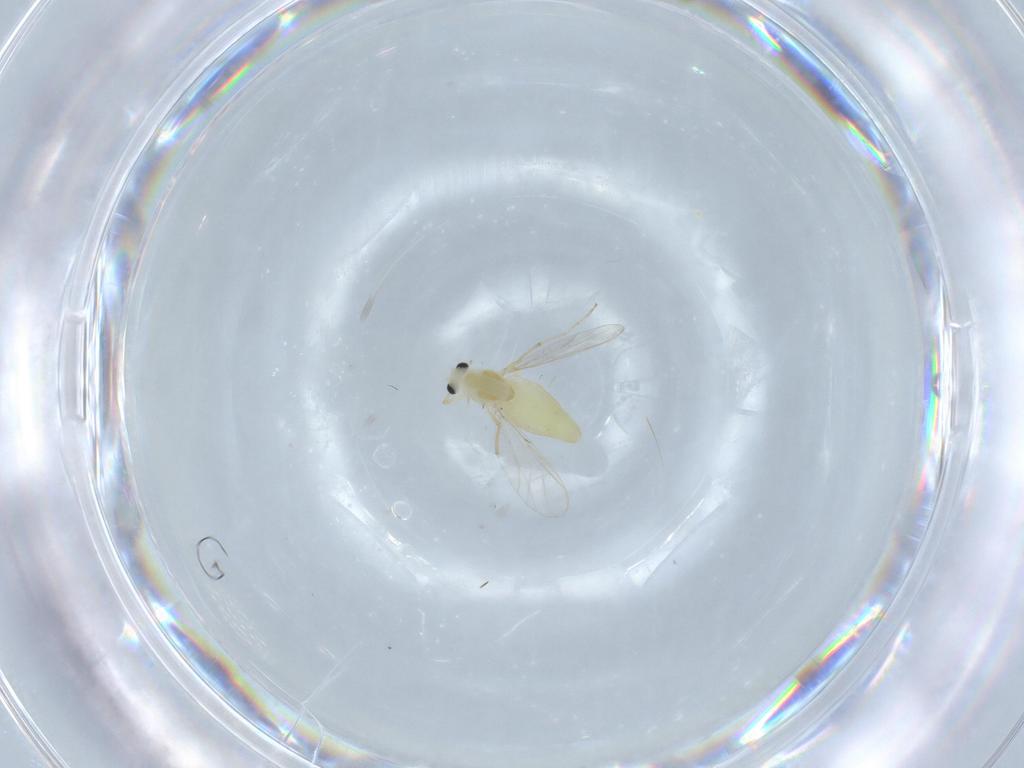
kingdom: Animalia
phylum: Arthropoda
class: Insecta
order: Diptera
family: Chironomidae
